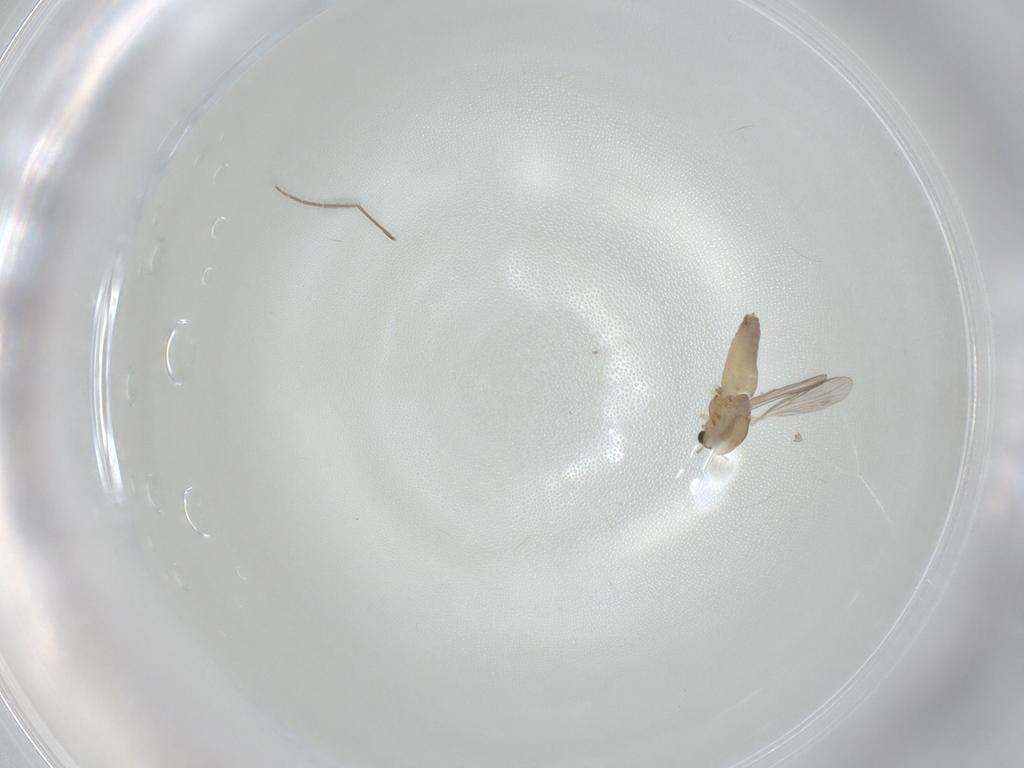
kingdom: Animalia
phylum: Arthropoda
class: Insecta
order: Diptera
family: Chironomidae
